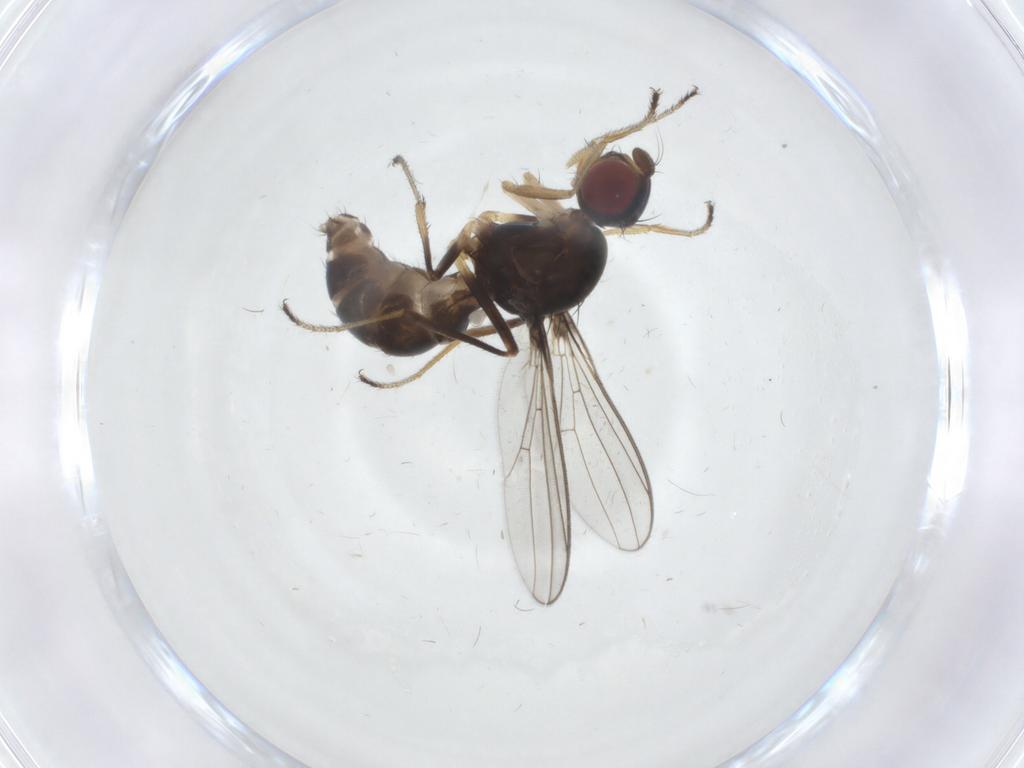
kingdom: Animalia
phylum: Arthropoda
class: Insecta
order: Diptera
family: Sepsidae
